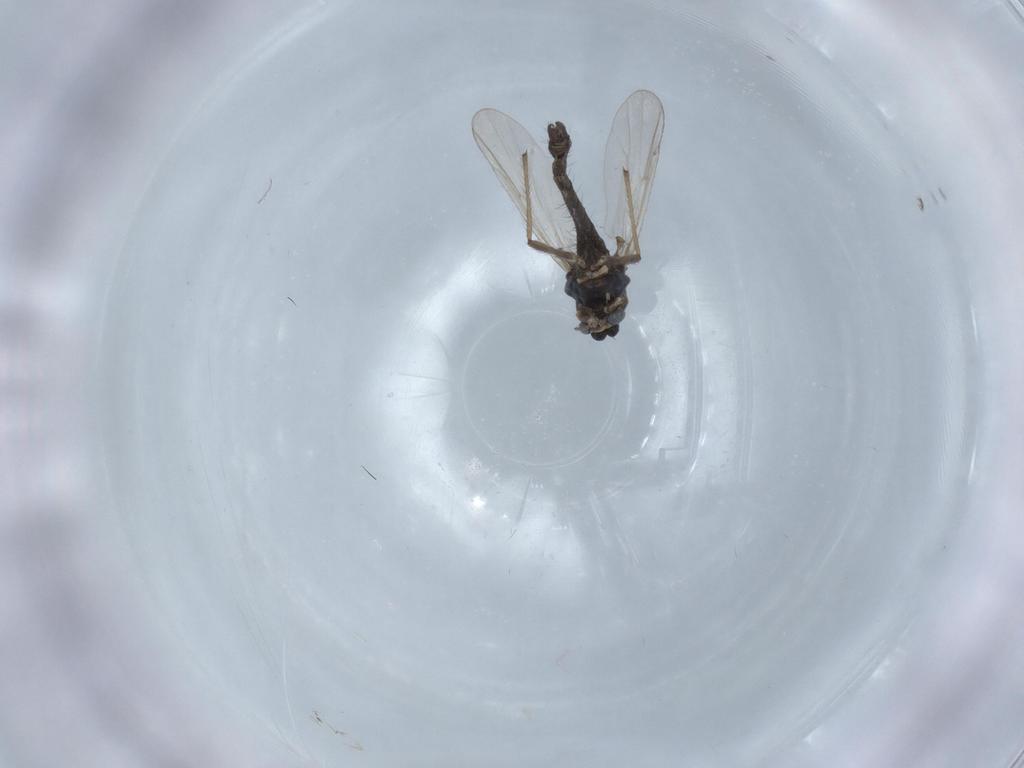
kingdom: Animalia
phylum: Arthropoda
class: Insecta
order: Diptera
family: Chironomidae
